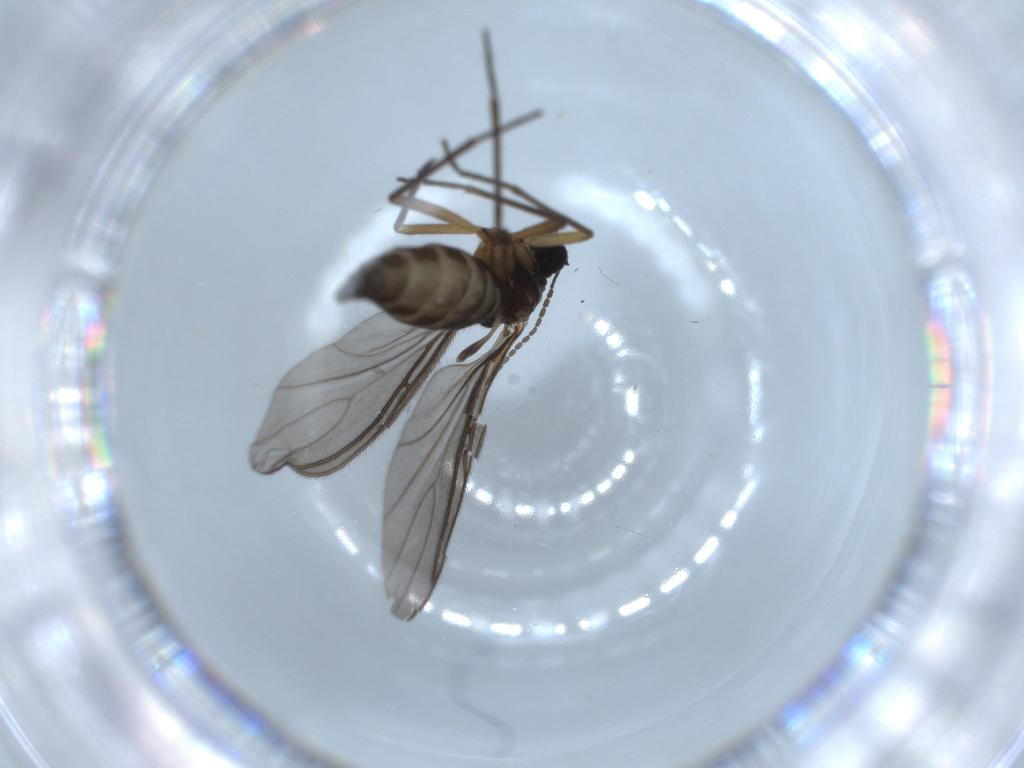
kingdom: Animalia
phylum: Arthropoda
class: Insecta
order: Diptera
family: Sciaridae
